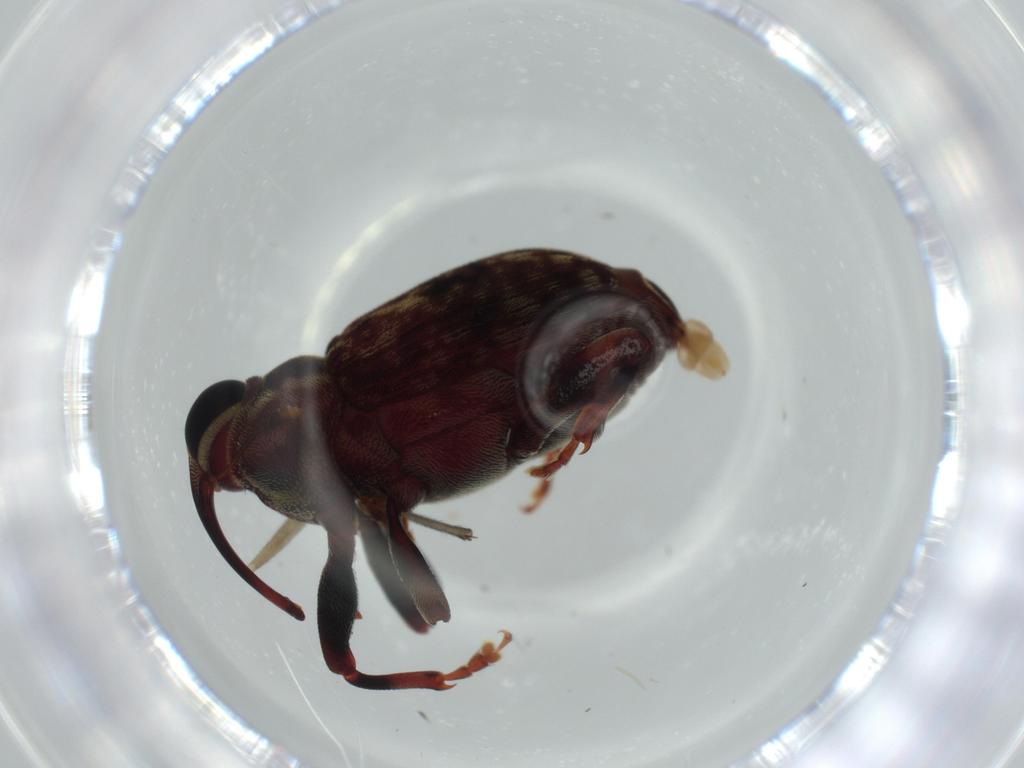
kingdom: Animalia
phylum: Arthropoda
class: Insecta
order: Coleoptera
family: Curculionidae
